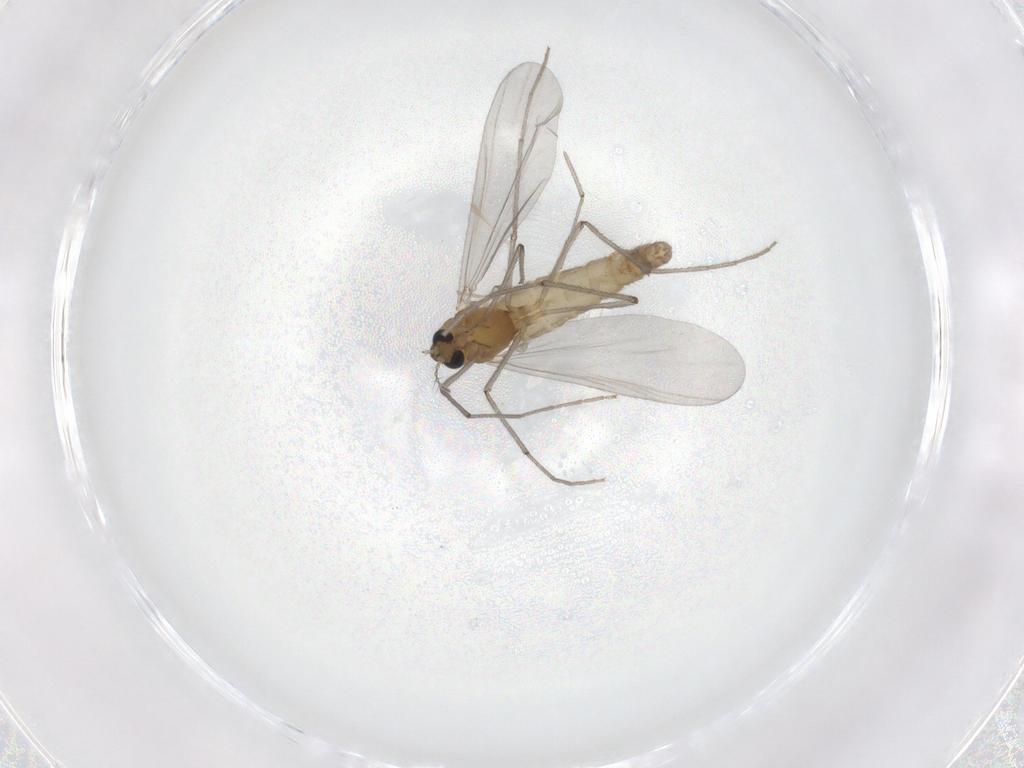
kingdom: Animalia
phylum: Arthropoda
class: Insecta
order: Diptera
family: Chironomidae
